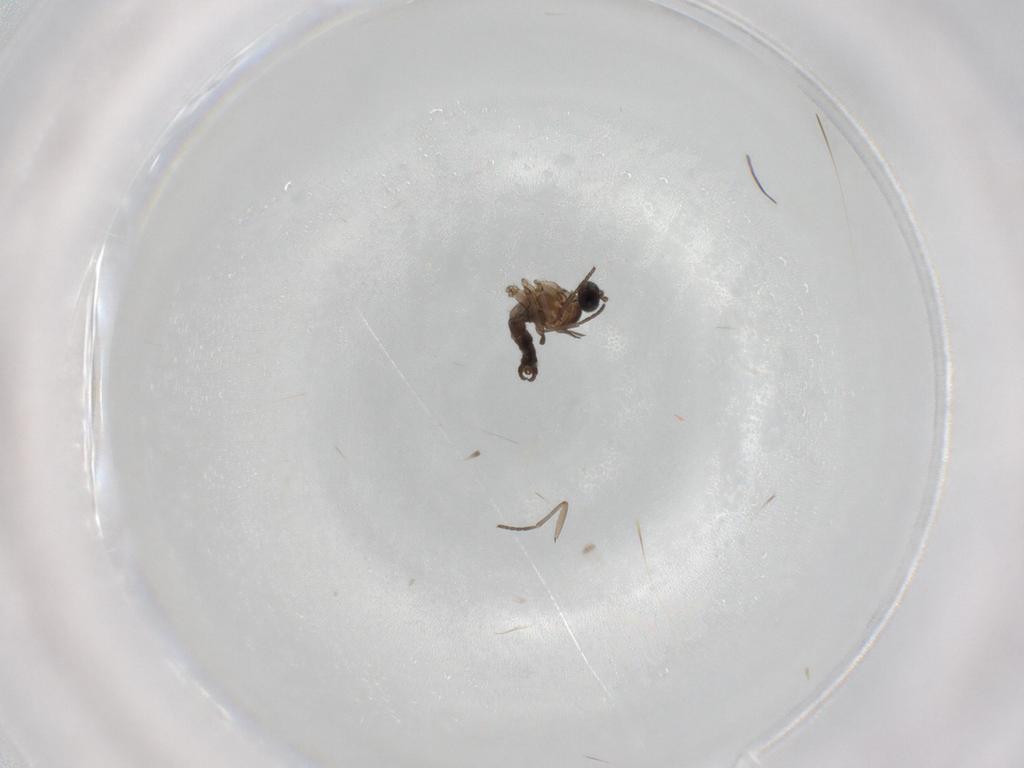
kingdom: Animalia
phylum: Arthropoda
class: Insecta
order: Diptera
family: Sciaridae
